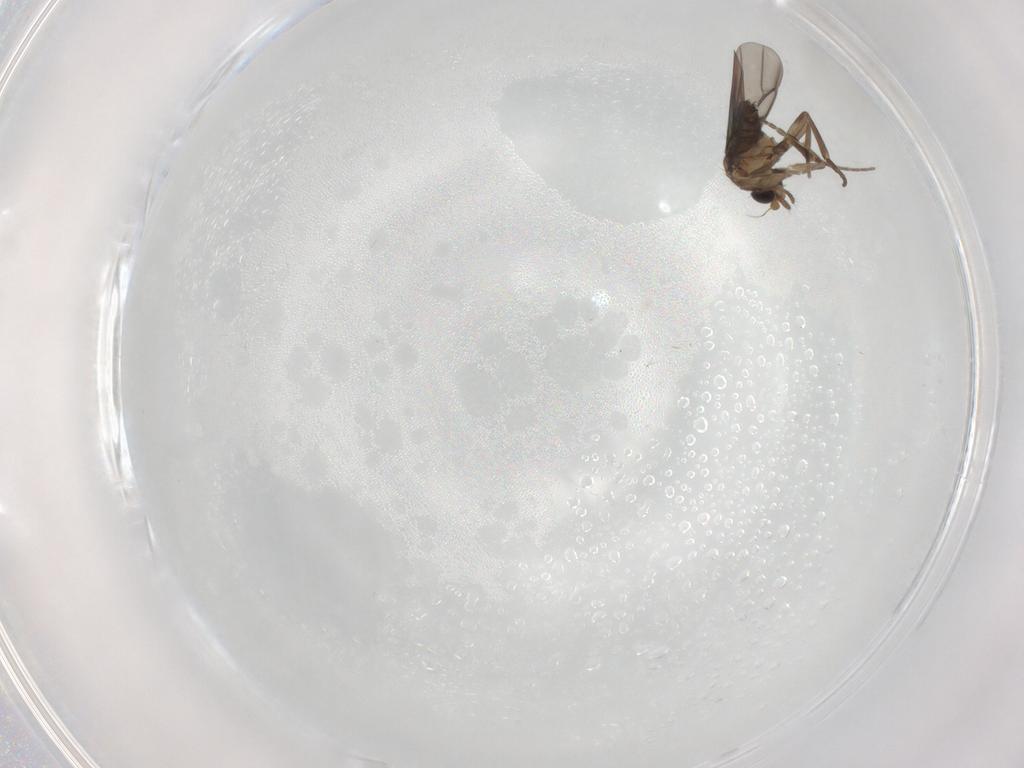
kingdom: Animalia
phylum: Arthropoda
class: Insecta
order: Diptera
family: Phoridae
